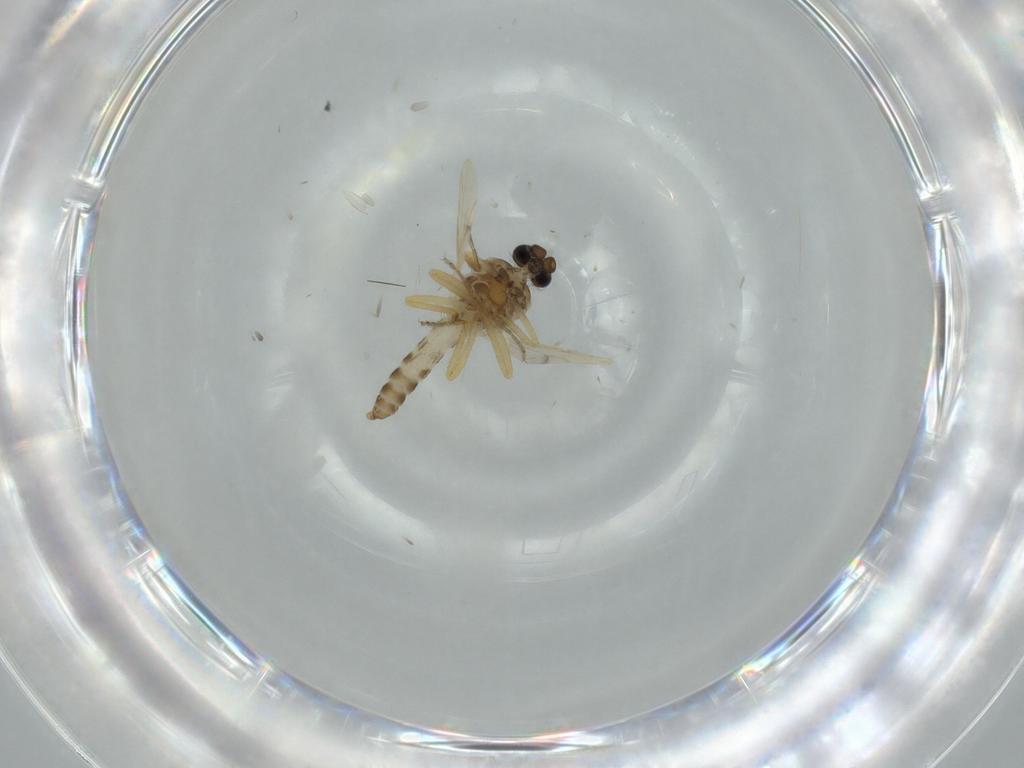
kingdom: Animalia
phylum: Arthropoda
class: Insecta
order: Diptera
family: Ceratopogonidae
